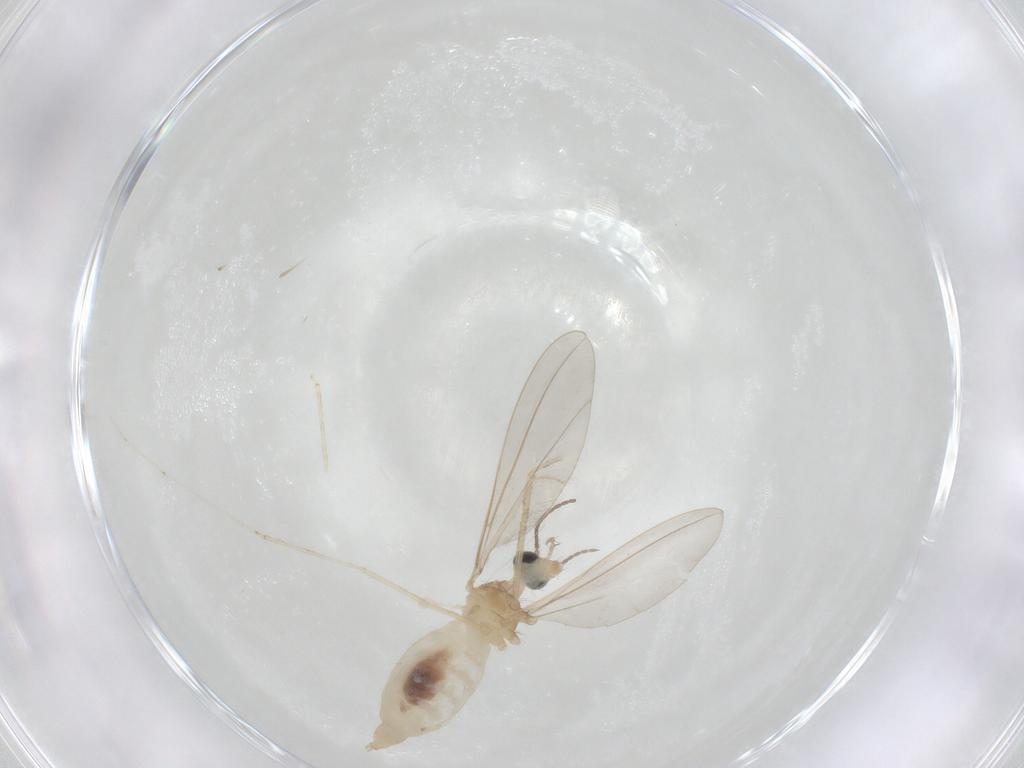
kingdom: Animalia
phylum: Arthropoda
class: Insecta
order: Diptera
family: Cecidomyiidae
